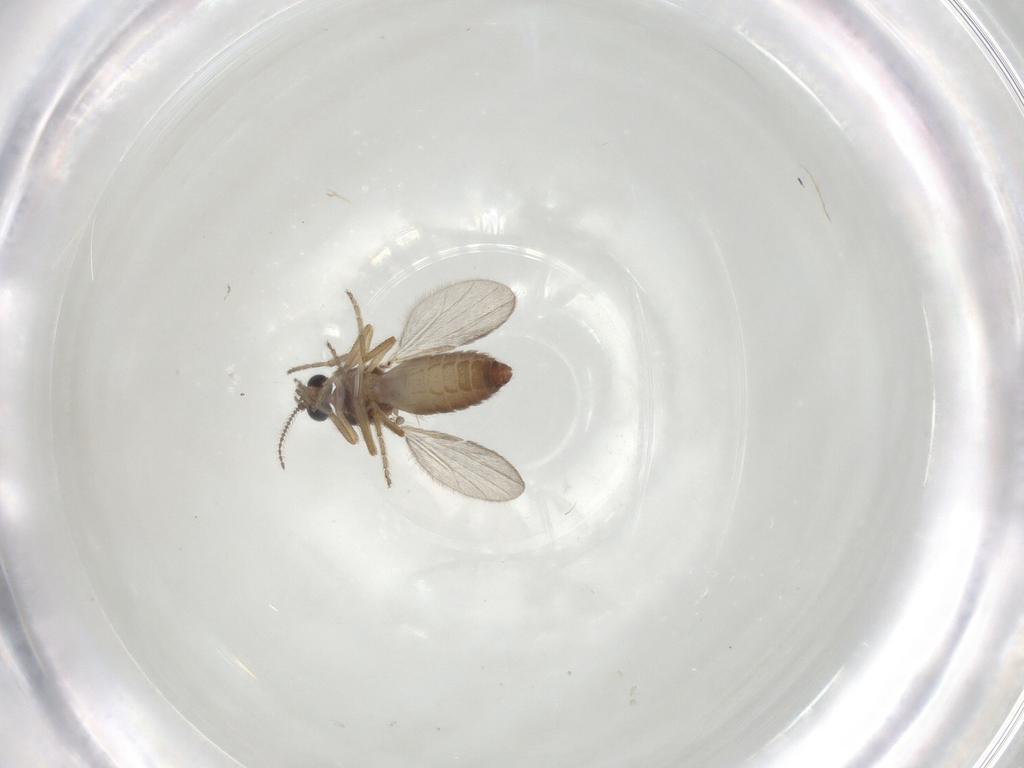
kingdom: Animalia
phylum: Arthropoda
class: Insecta
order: Diptera
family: Ceratopogonidae
